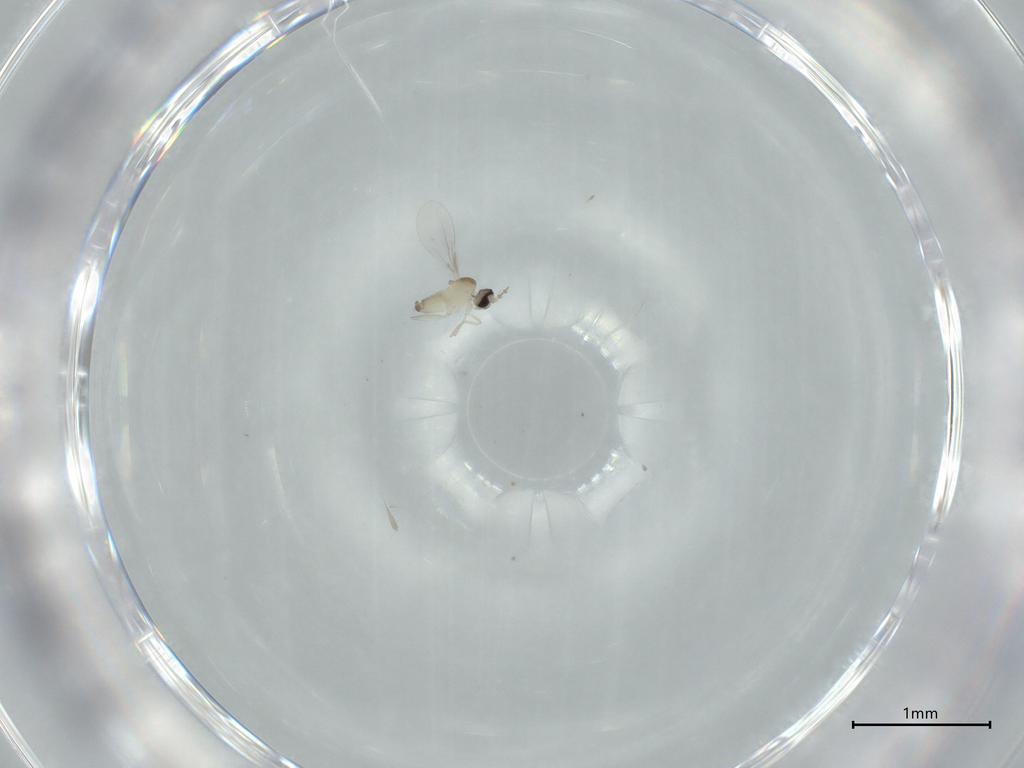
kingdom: Animalia
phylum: Arthropoda
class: Insecta
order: Diptera
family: Cecidomyiidae
